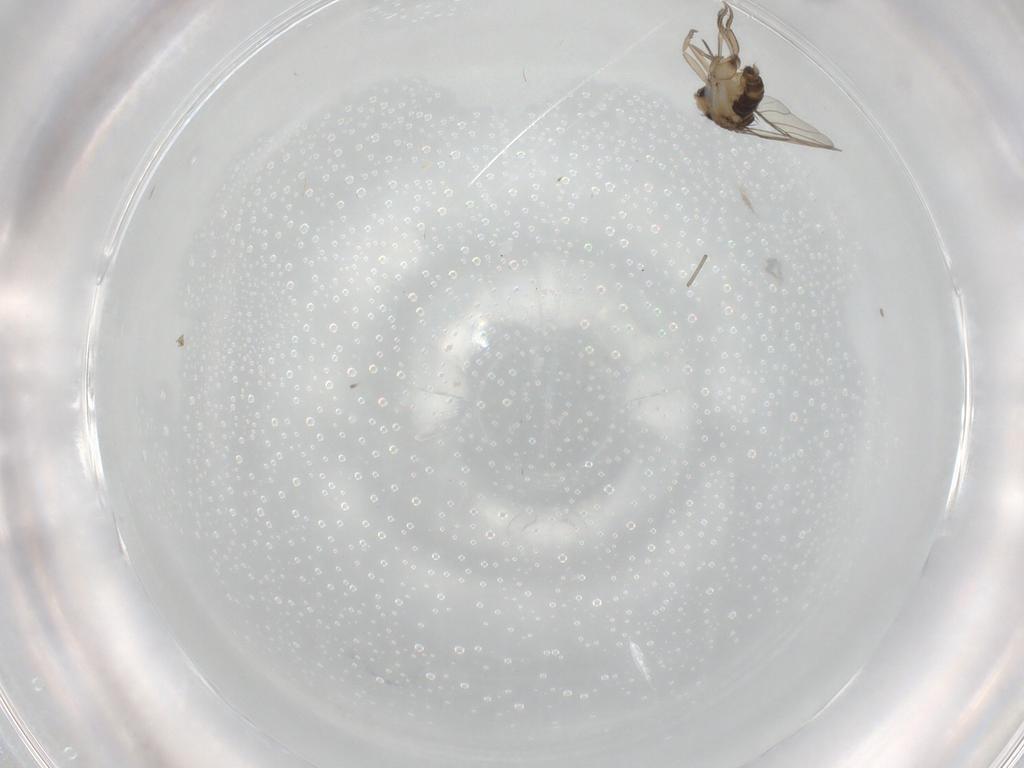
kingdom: Animalia
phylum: Arthropoda
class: Insecta
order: Diptera
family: Phoridae
